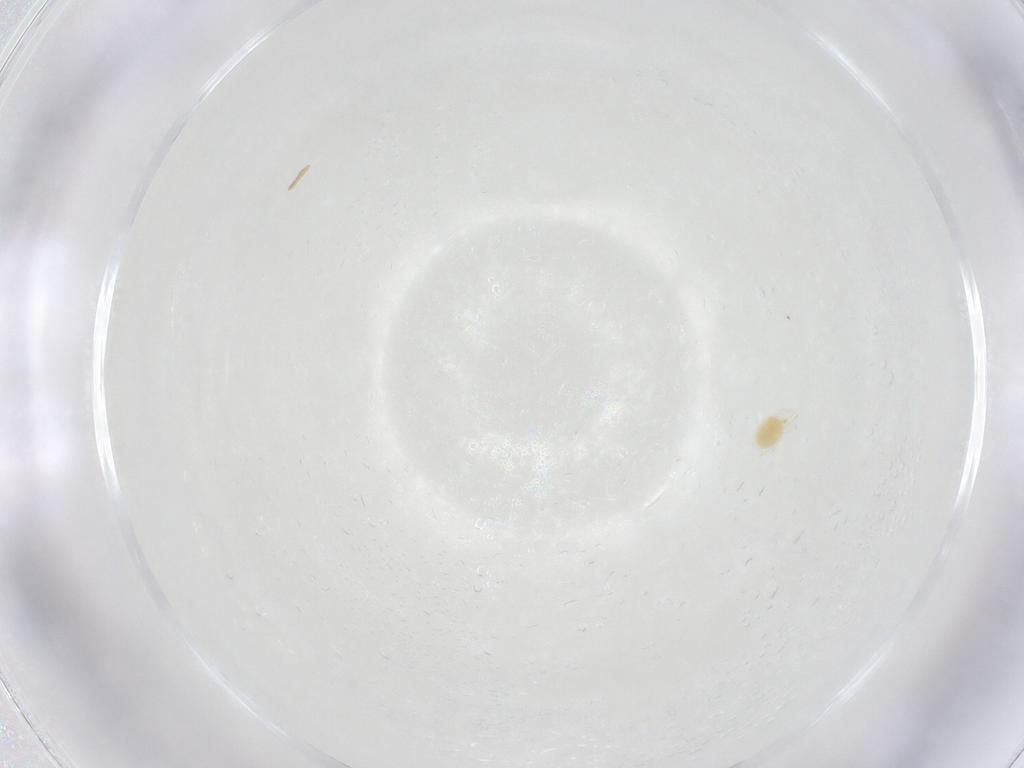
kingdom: Animalia
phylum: Arthropoda
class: Arachnida
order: Trombidiformes
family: Tetranychidae
